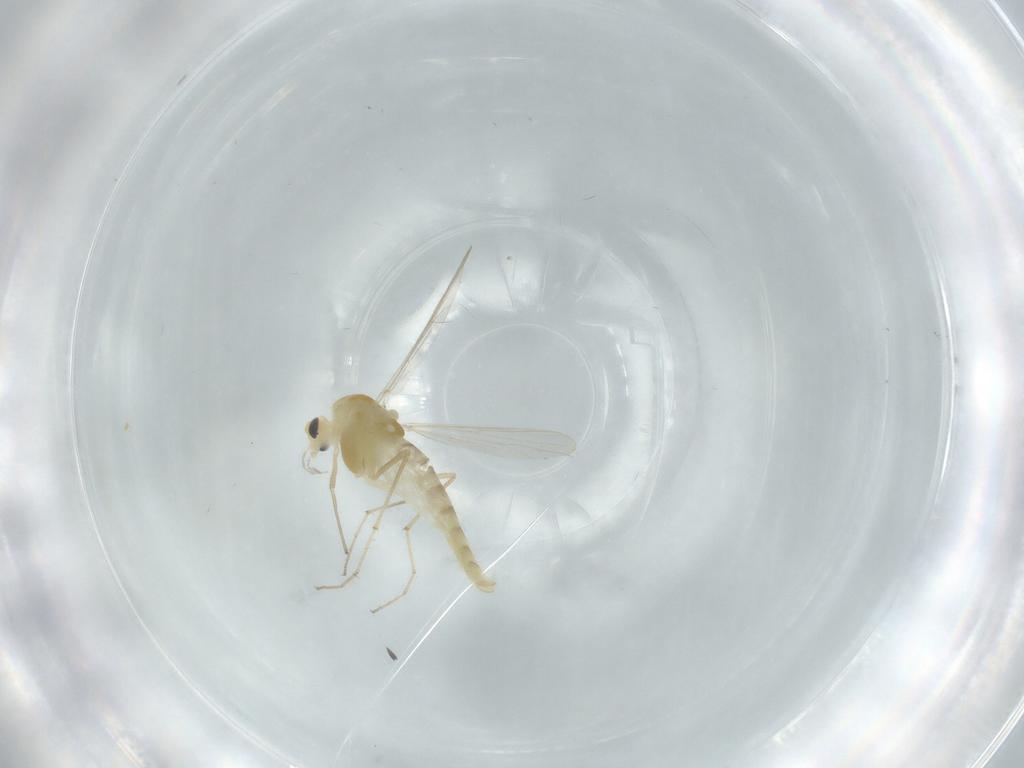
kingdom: Animalia
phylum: Arthropoda
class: Insecta
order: Diptera
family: Chironomidae
